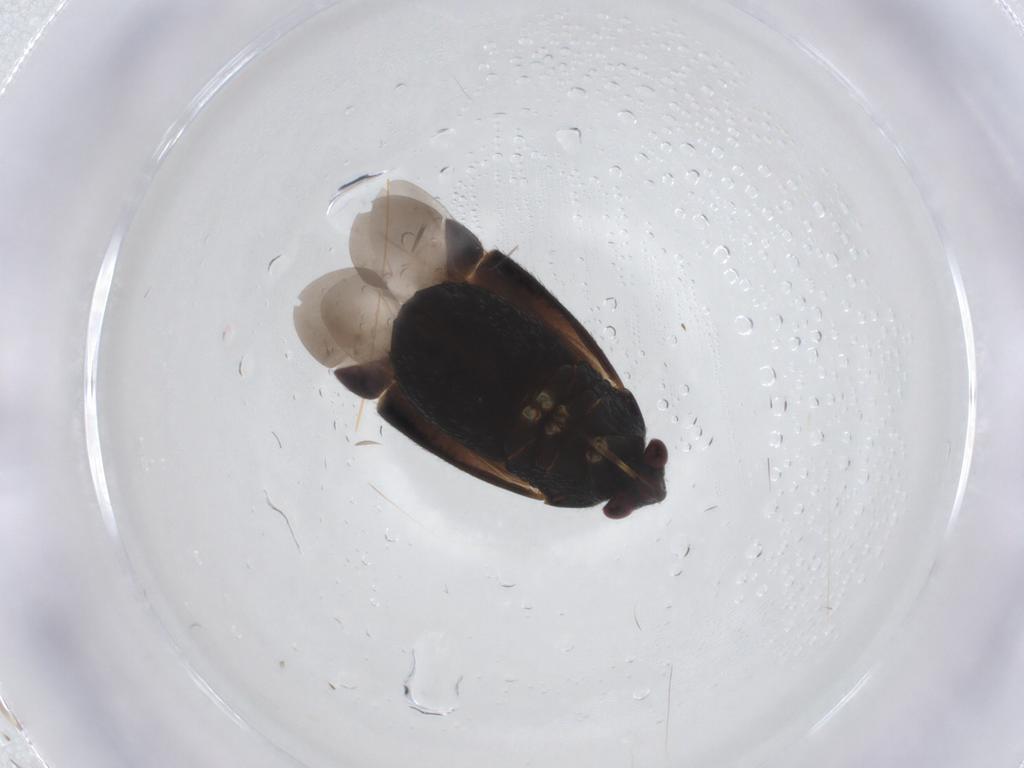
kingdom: Animalia
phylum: Arthropoda
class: Insecta
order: Hemiptera
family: Miridae
